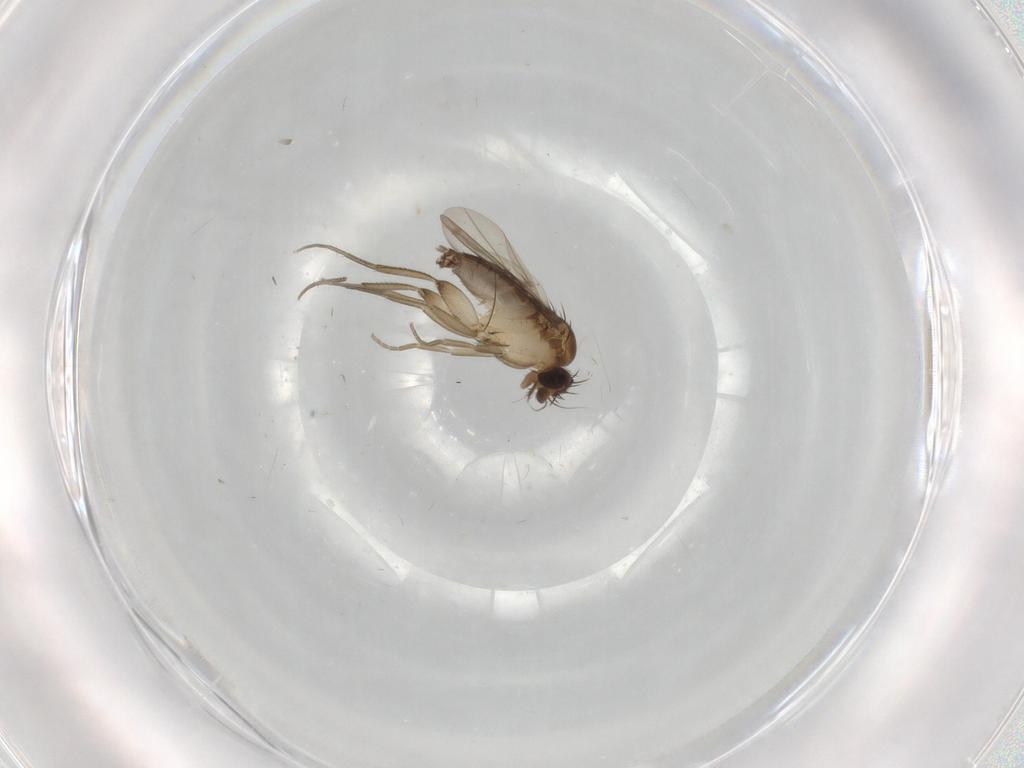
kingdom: Animalia
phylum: Arthropoda
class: Insecta
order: Diptera
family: Phoridae
